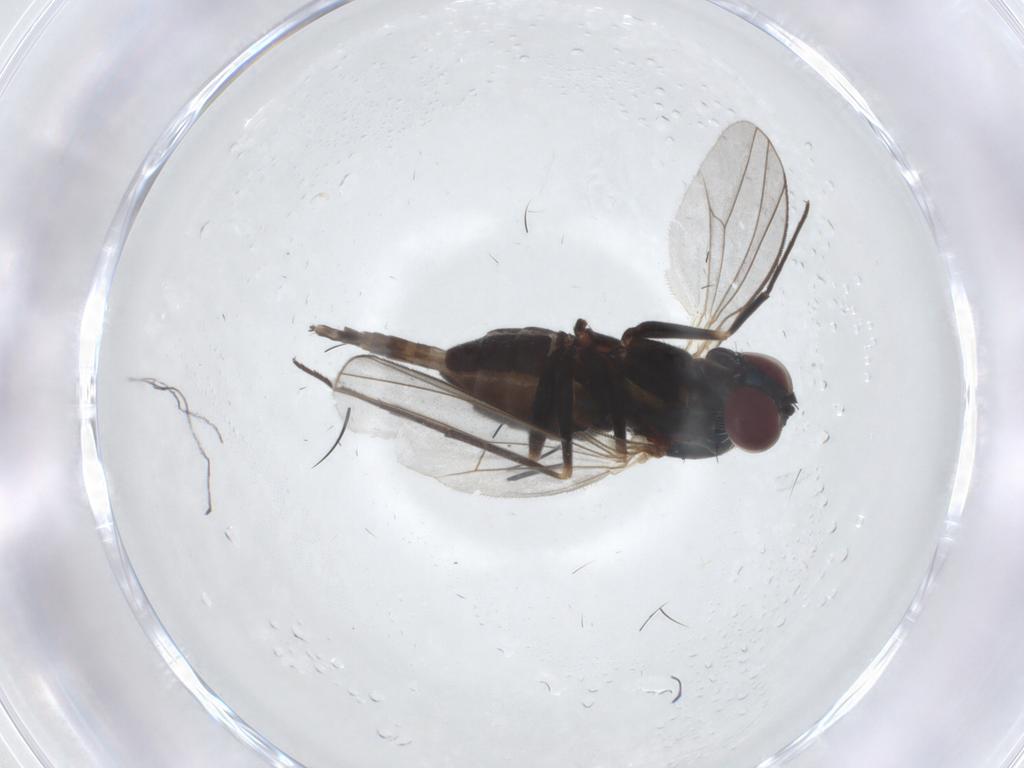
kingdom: Animalia
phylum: Arthropoda
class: Insecta
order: Diptera
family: Dolichopodidae
